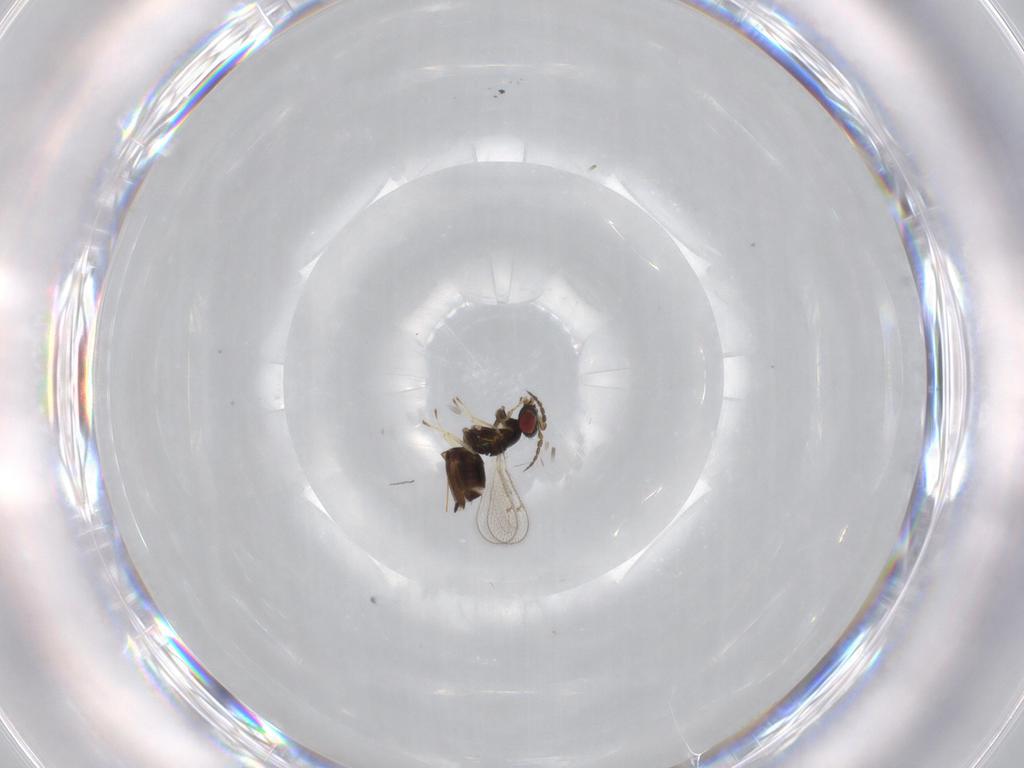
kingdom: Animalia
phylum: Arthropoda
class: Insecta
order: Hymenoptera
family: Eulophidae
